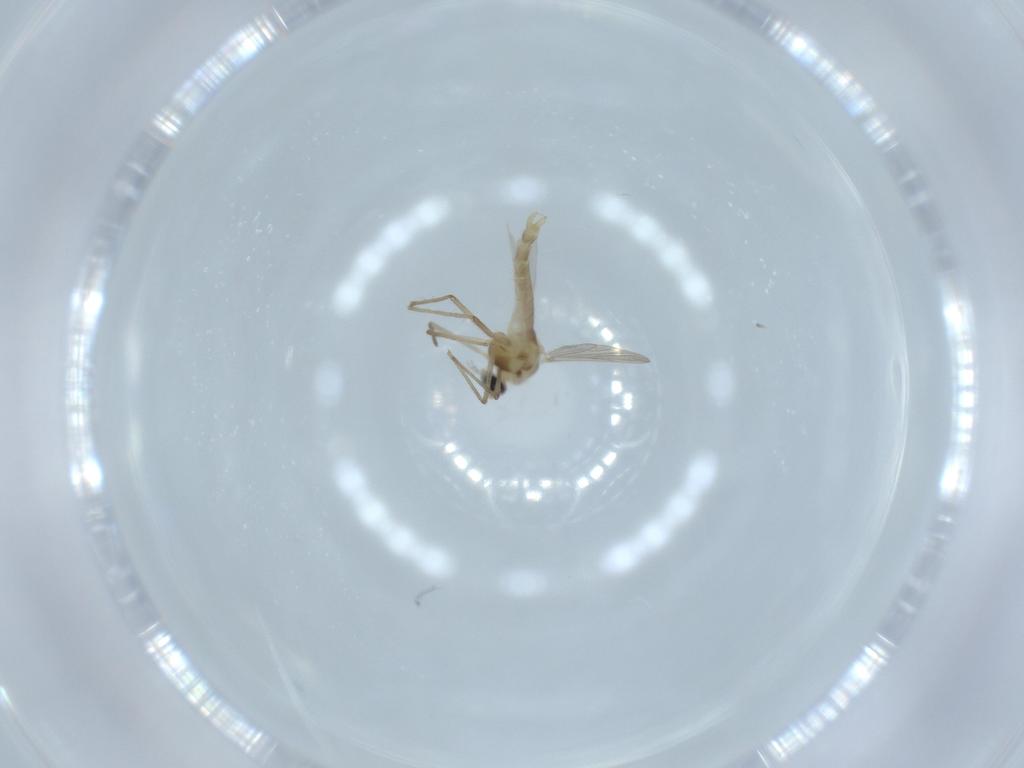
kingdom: Animalia
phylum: Arthropoda
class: Insecta
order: Diptera
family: Chironomidae
